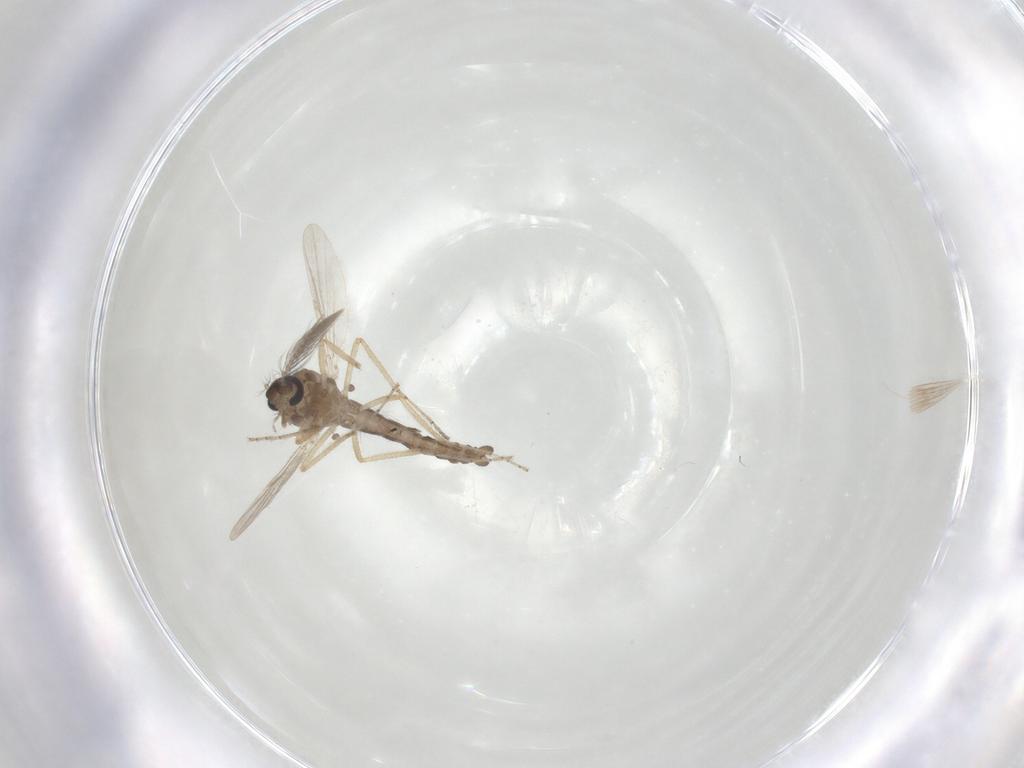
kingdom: Animalia
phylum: Arthropoda
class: Insecta
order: Diptera
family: Ceratopogonidae
